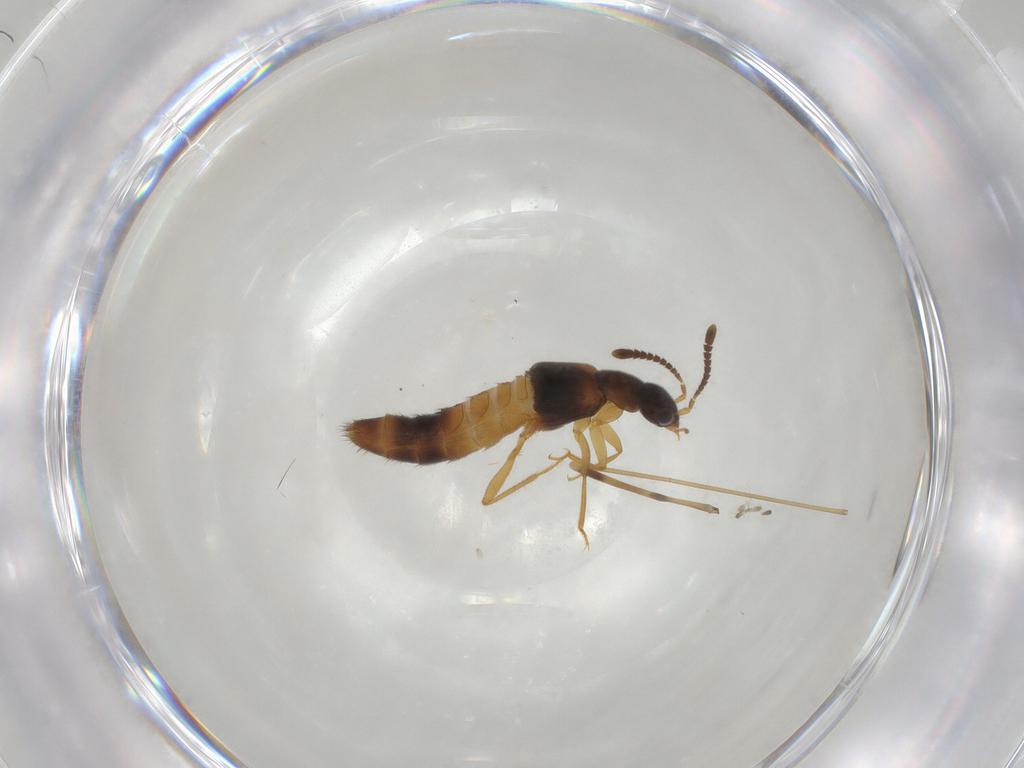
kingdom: Animalia
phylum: Arthropoda
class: Insecta
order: Coleoptera
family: Staphylinidae
